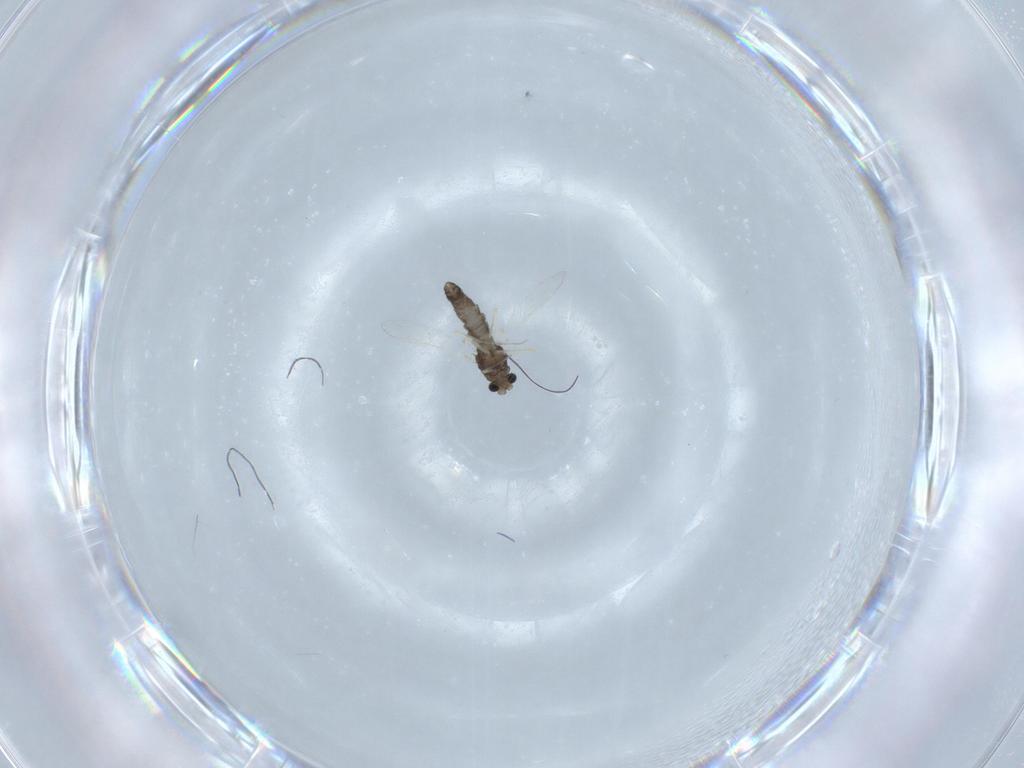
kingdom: Animalia
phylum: Arthropoda
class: Insecta
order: Diptera
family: Chironomidae
